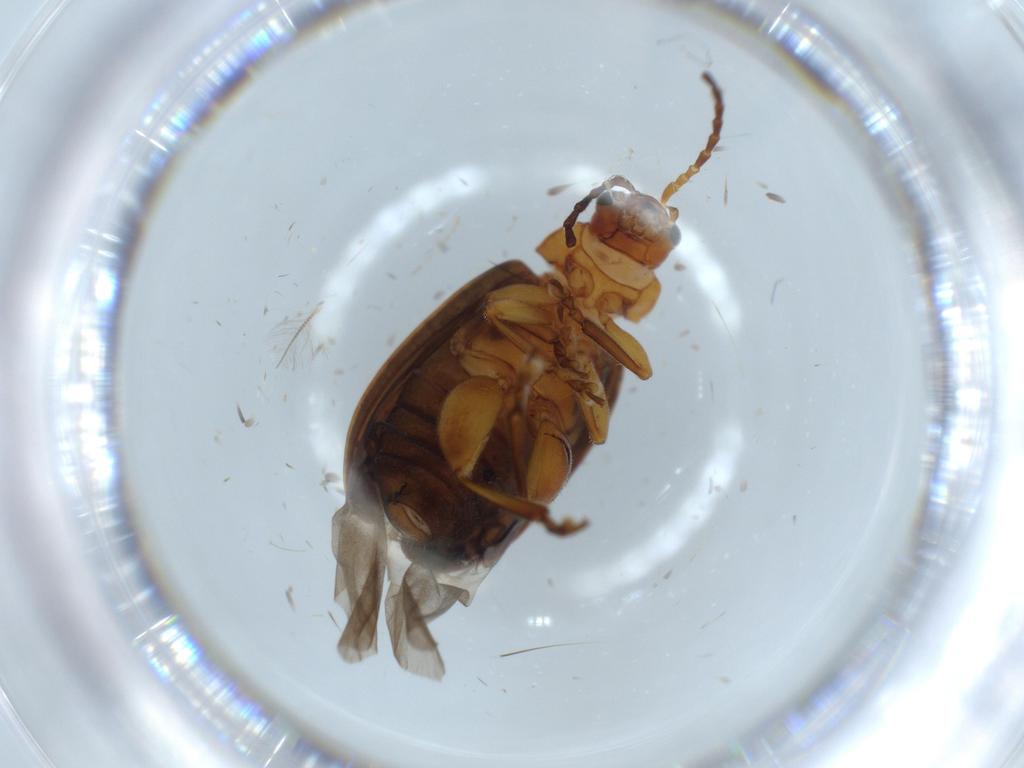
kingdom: Animalia
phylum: Arthropoda
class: Insecta
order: Coleoptera
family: Chrysomelidae
